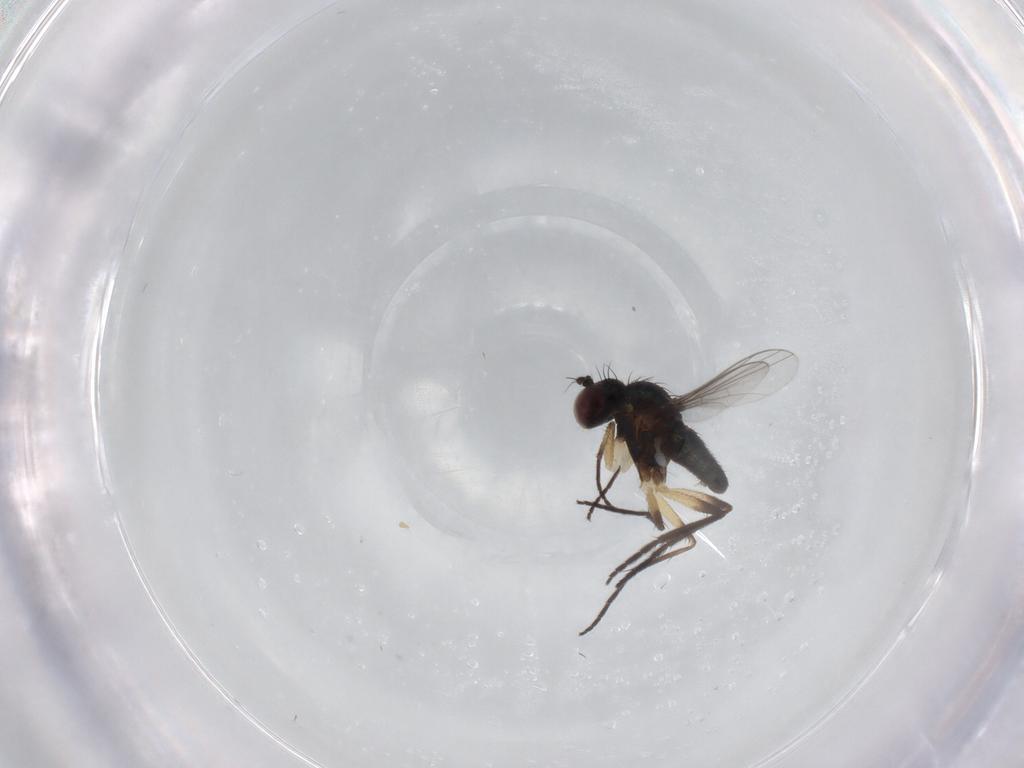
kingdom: Animalia
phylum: Arthropoda
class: Insecta
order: Diptera
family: Dolichopodidae
